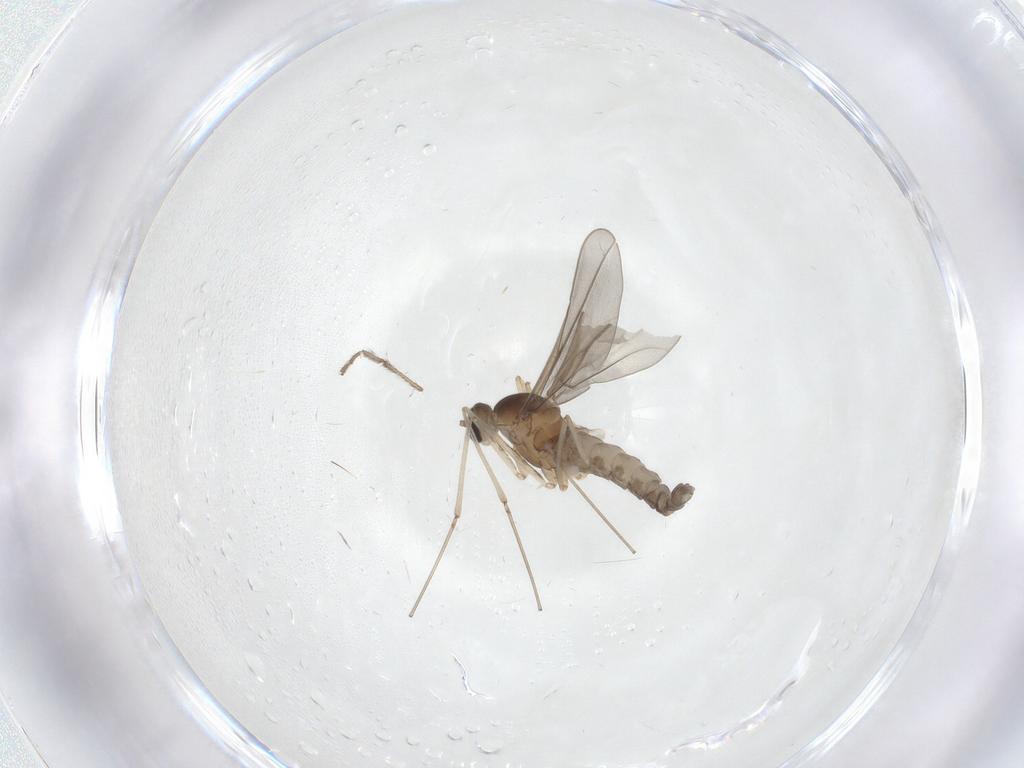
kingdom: Animalia
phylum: Arthropoda
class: Insecta
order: Diptera
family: Cecidomyiidae
